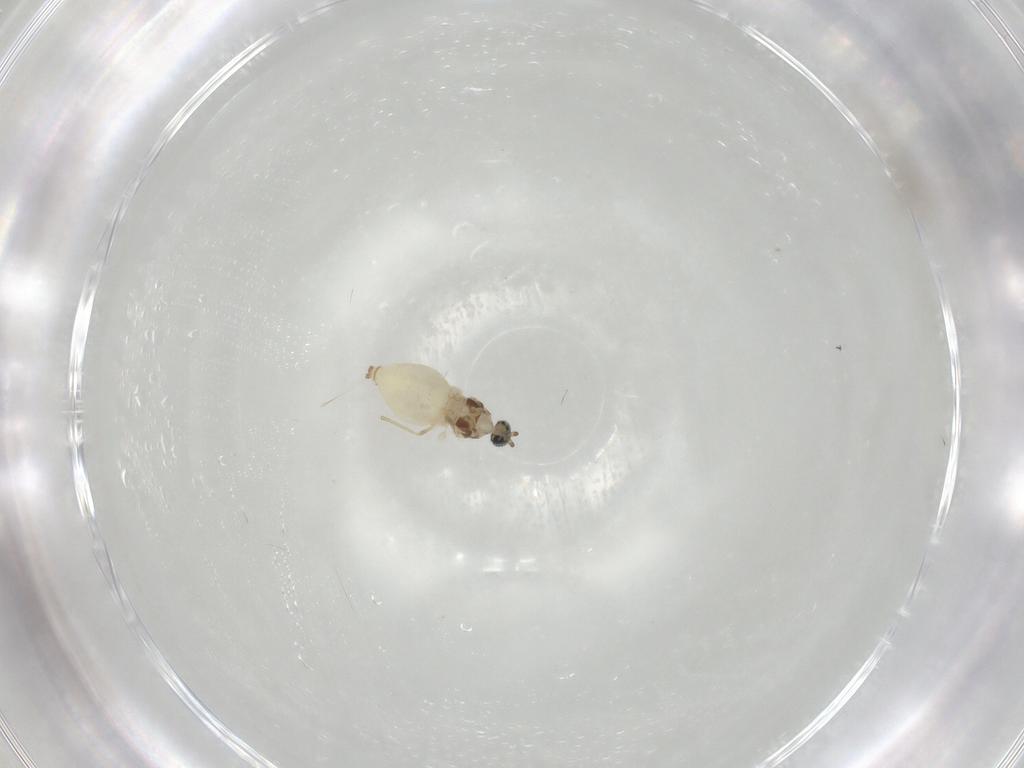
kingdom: Animalia
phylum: Arthropoda
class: Insecta
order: Diptera
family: Cecidomyiidae
